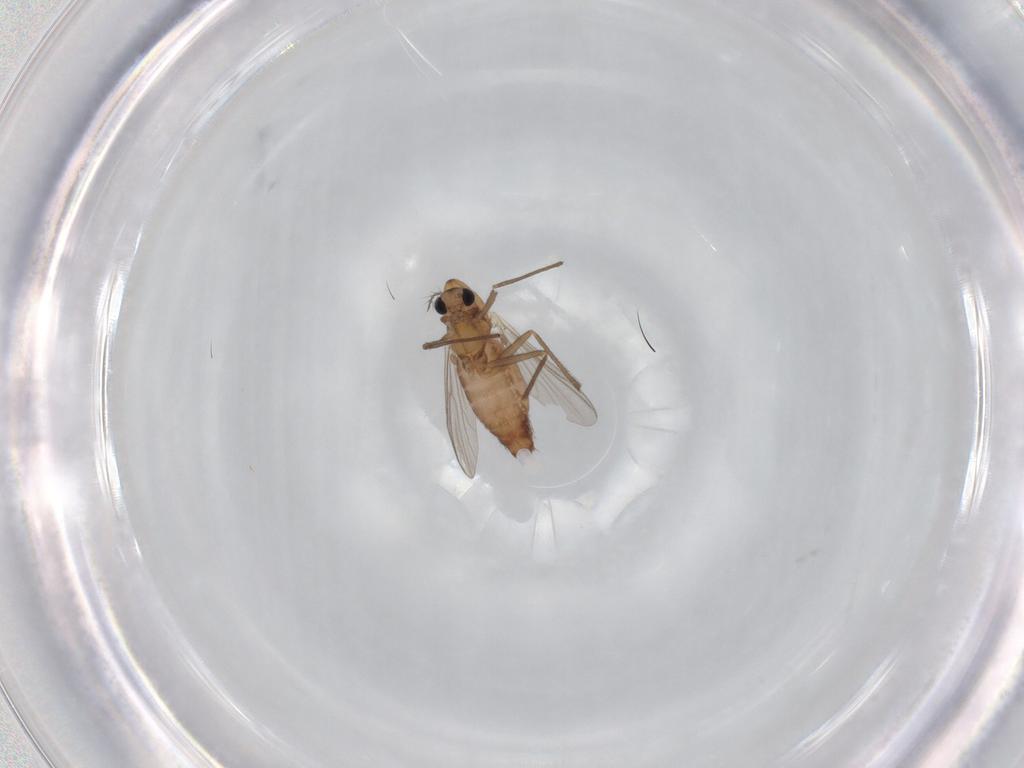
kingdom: Animalia
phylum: Arthropoda
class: Insecta
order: Diptera
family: Chironomidae
